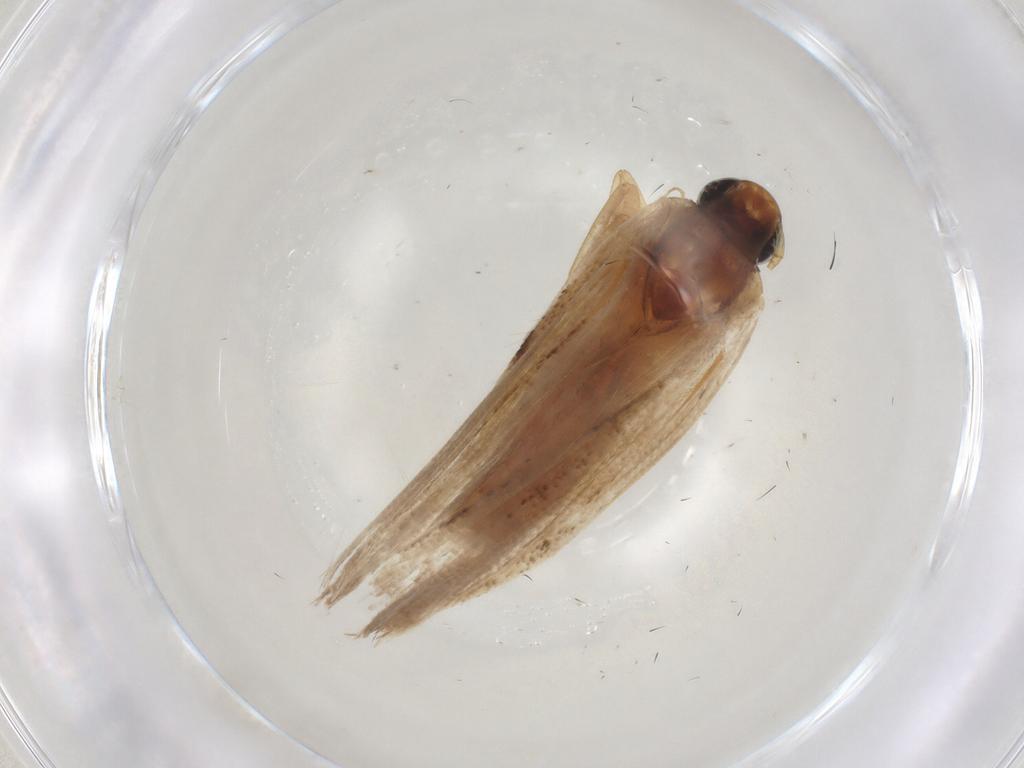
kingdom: Animalia
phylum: Arthropoda
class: Insecta
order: Lepidoptera
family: Gelechiidae
